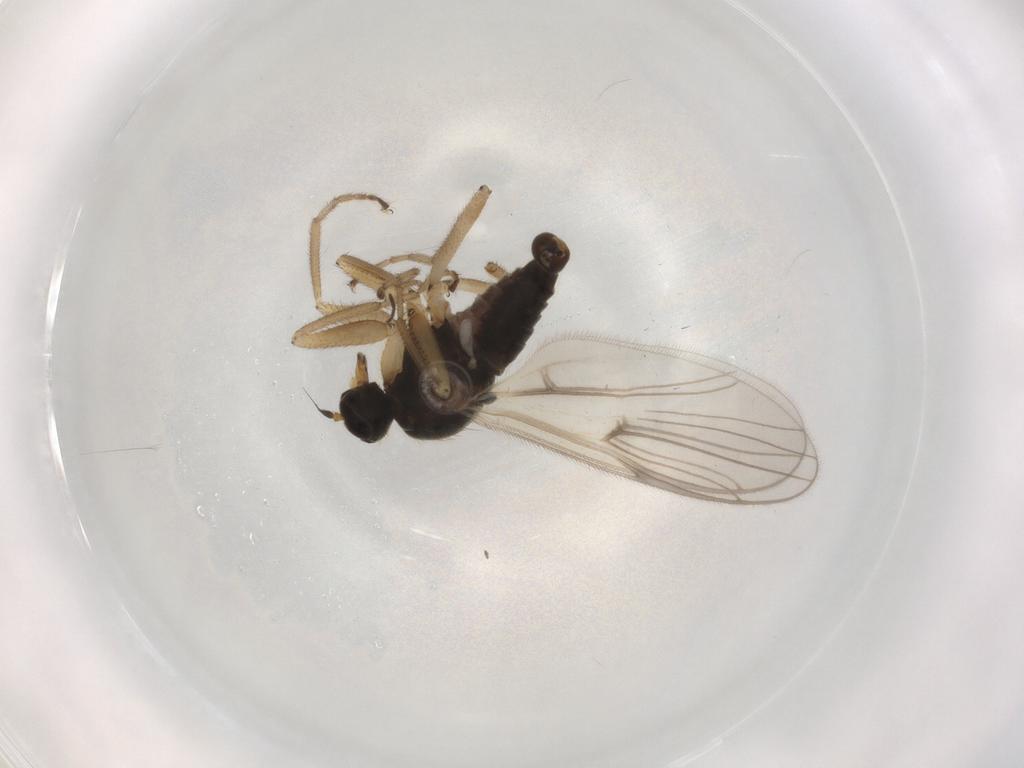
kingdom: Animalia
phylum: Arthropoda
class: Insecta
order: Diptera
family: Hybotidae
